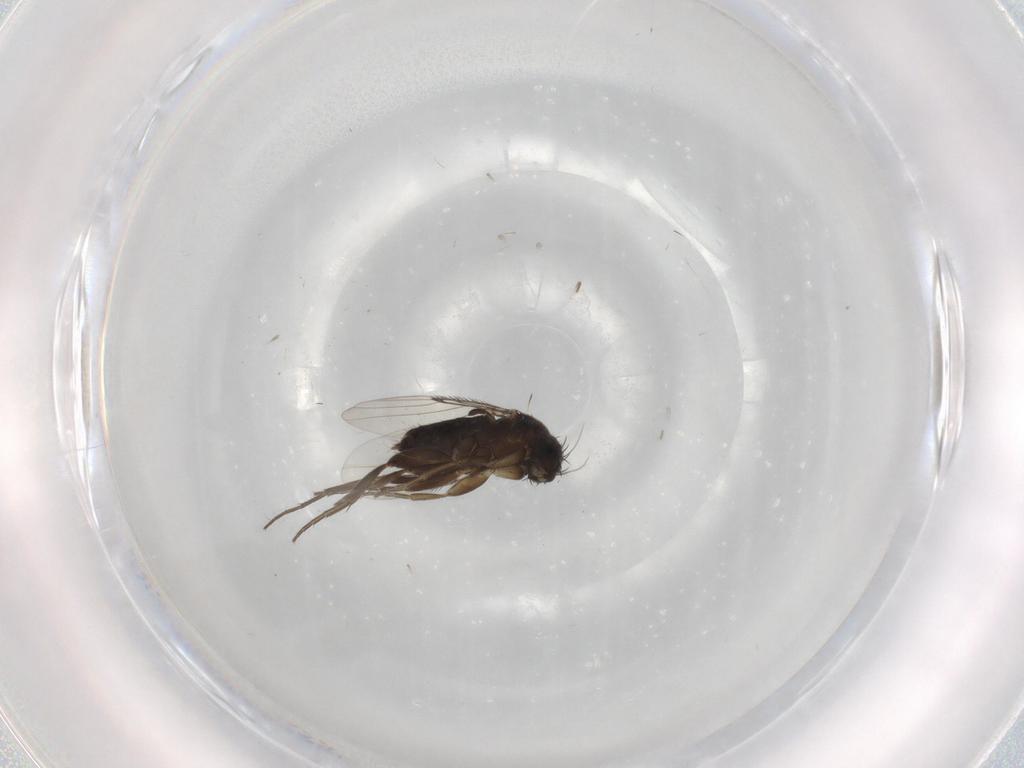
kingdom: Animalia
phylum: Arthropoda
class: Insecta
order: Diptera
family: Phoridae
